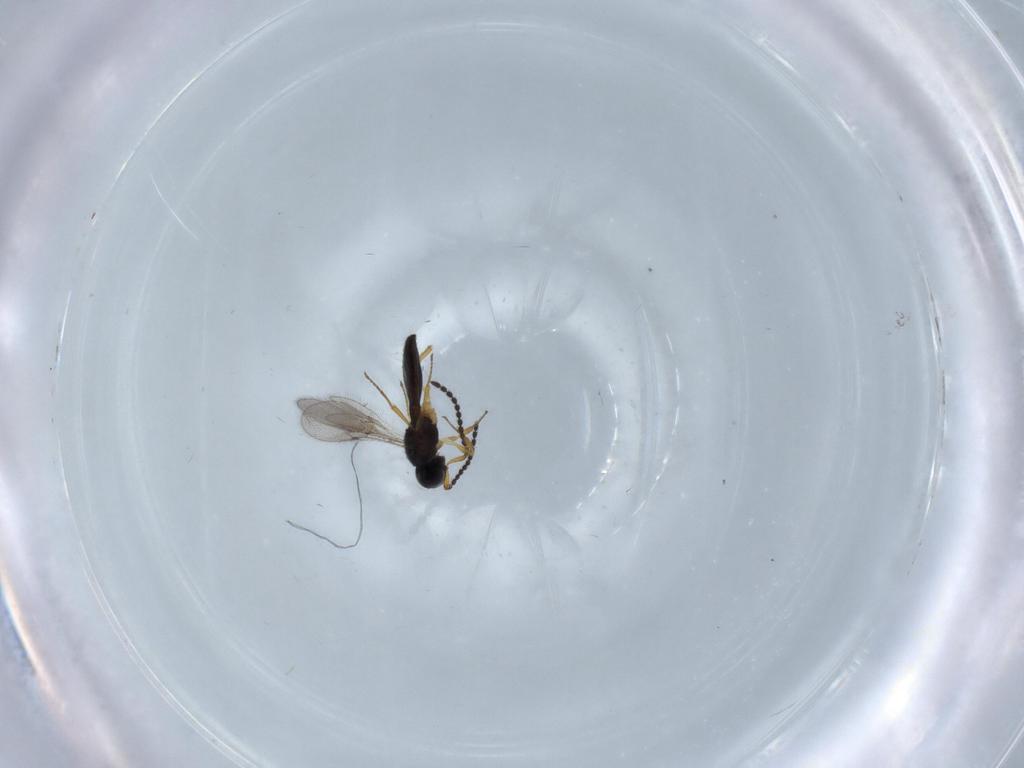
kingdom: Animalia
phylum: Arthropoda
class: Insecta
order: Hymenoptera
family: Scelionidae
